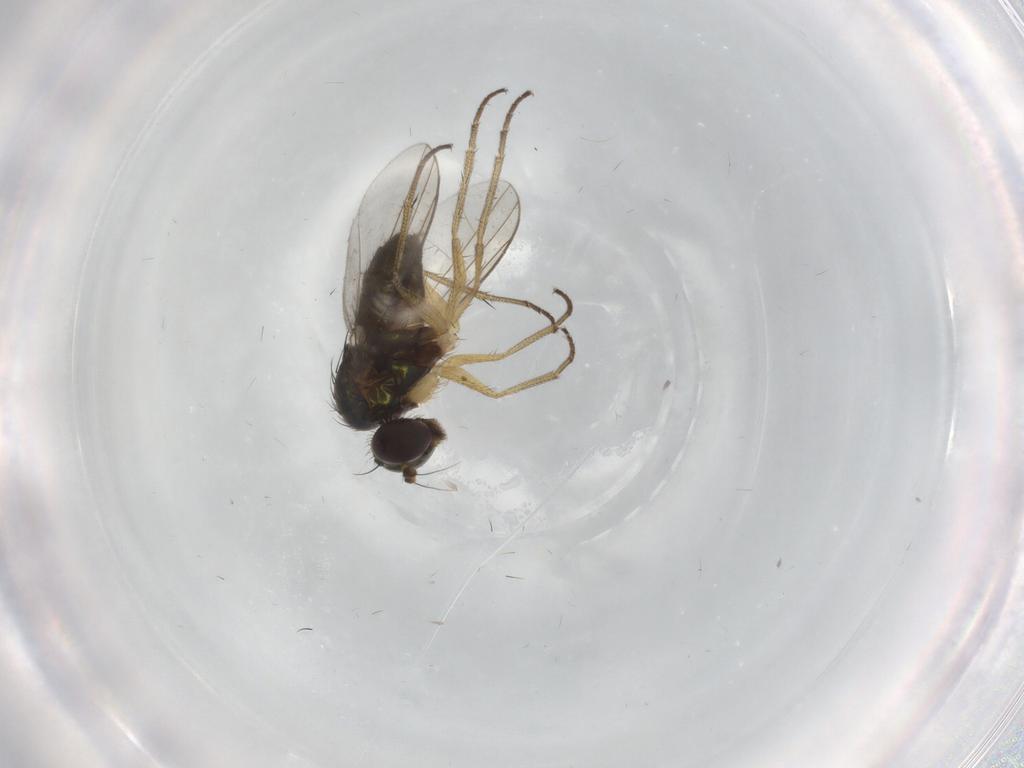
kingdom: Animalia
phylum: Arthropoda
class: Insecta
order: Diptera
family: Dolichopodidae
